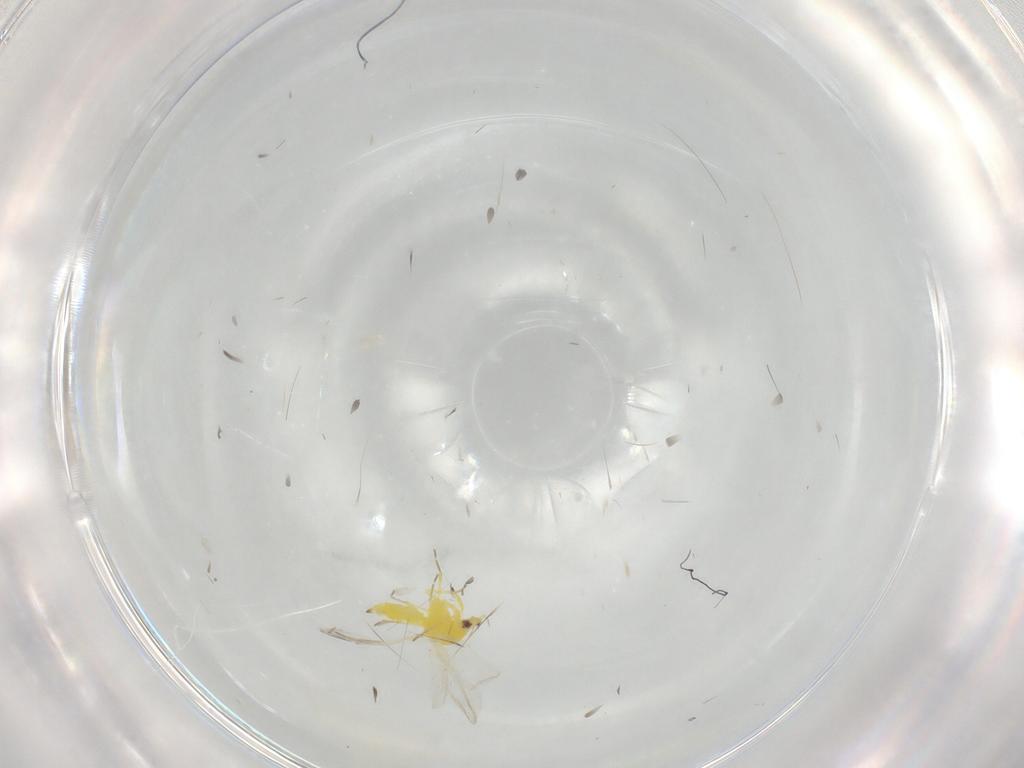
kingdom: Animalia
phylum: Arthropoda
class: Insecta
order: Hemiptera
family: Aleyrodidae
